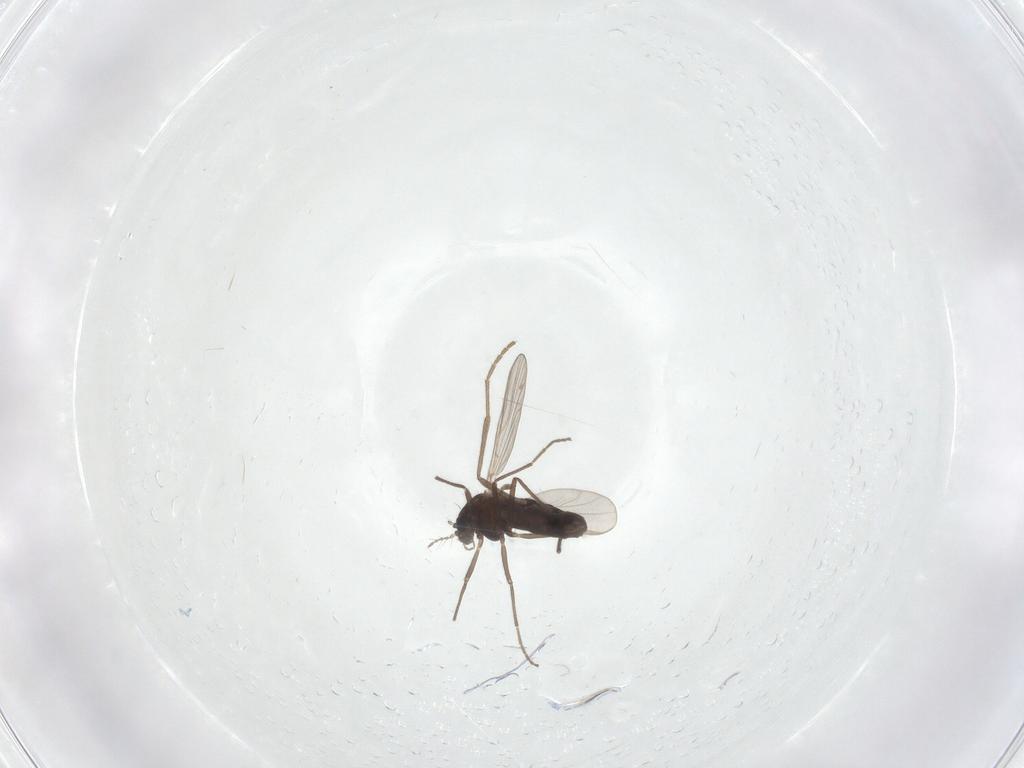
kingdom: Animalia
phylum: Arthropoda
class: Insecta
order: Diptera
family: Chironomidae
